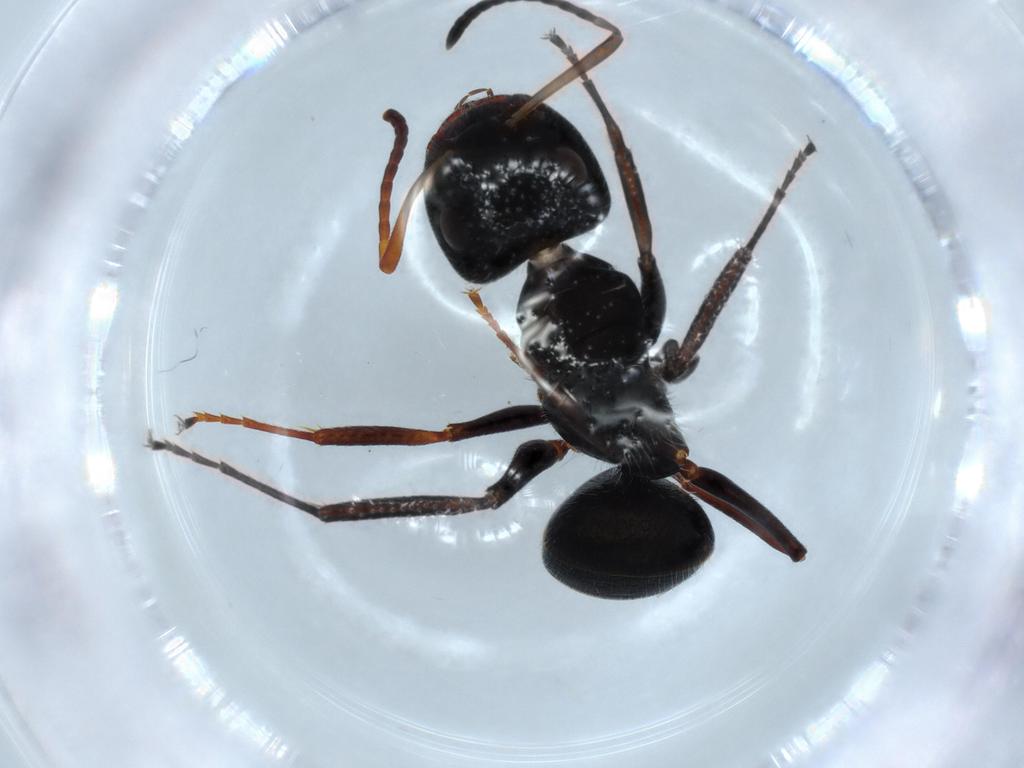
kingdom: Animalia
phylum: Arthropoda
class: Insecta
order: Hymenoptera
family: Formicidae
